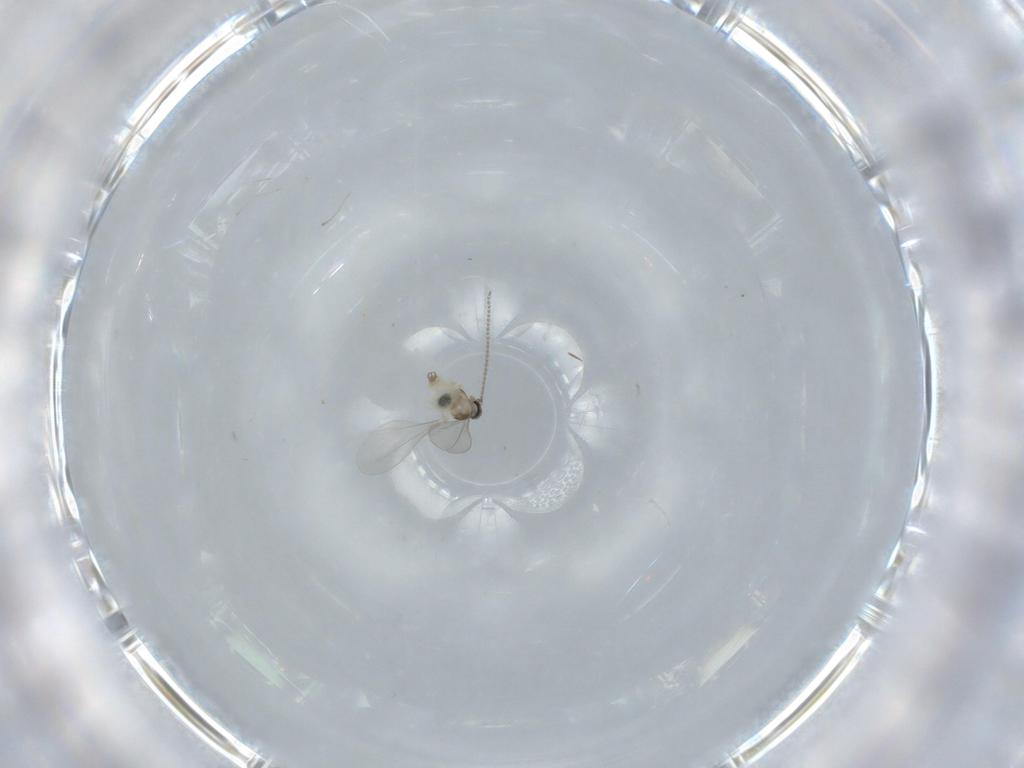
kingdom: Animalia
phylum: Arthropoda
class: Insecta
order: Diptera
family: Cecidomyiidae
